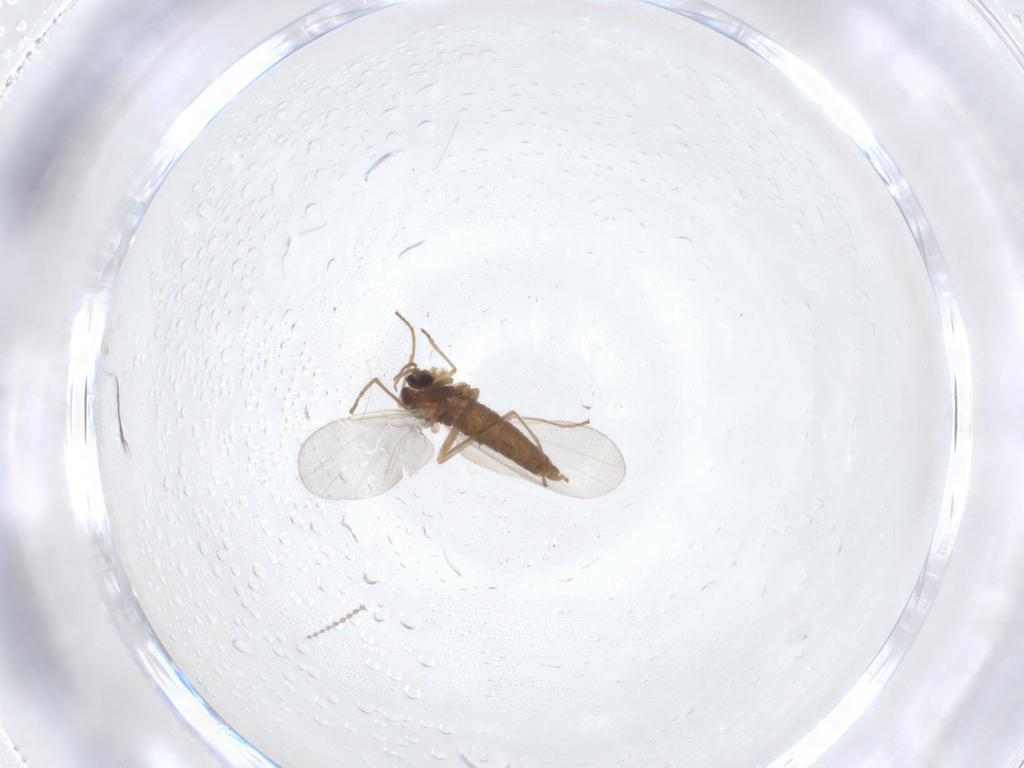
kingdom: Animalia
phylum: Arthropoda
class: Insecta
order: Diptera
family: Cecidomyiidae
